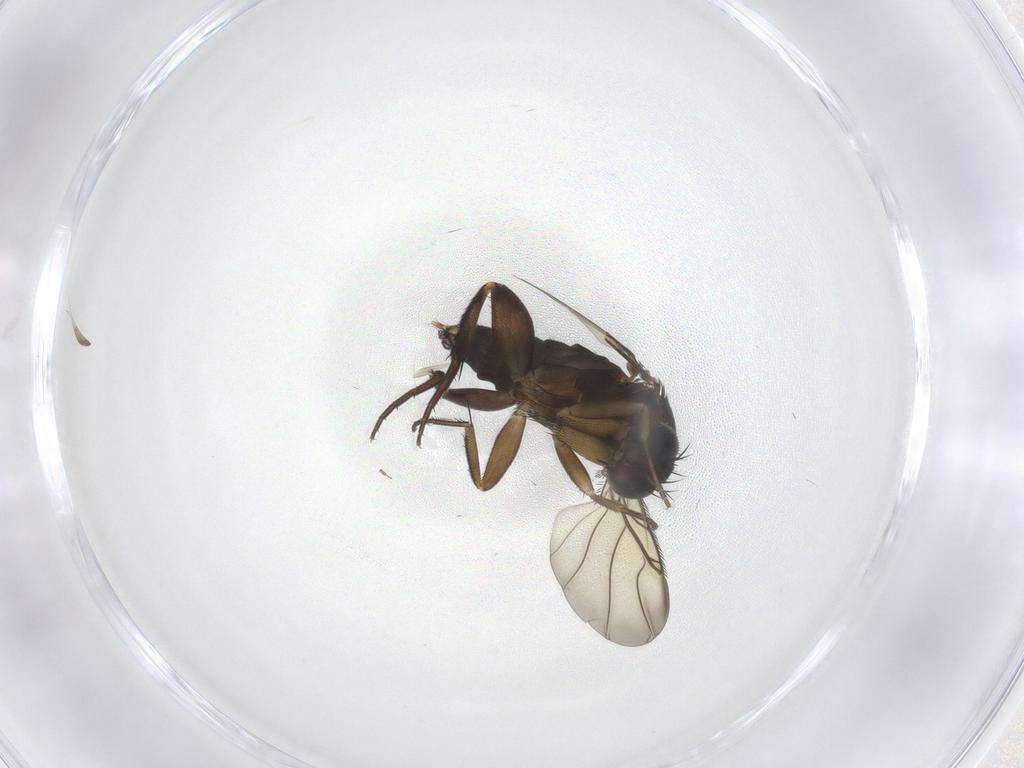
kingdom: Animalia
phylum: Arthropoda
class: Insecta
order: Diptera
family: Phoridae
